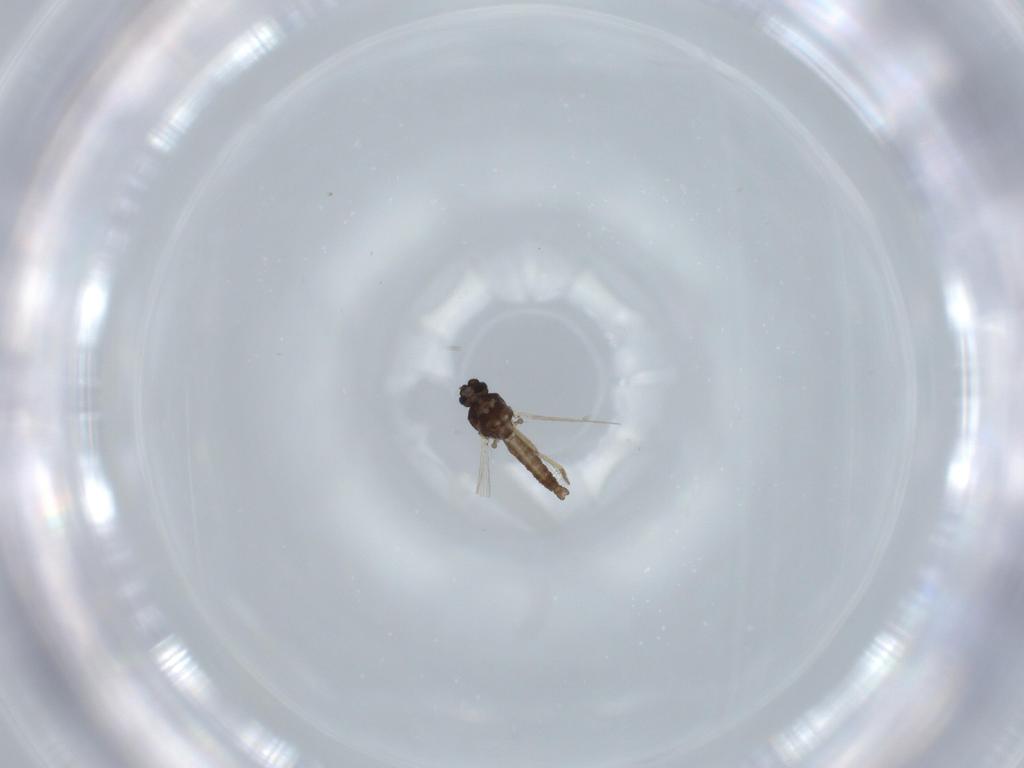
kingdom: Animalia
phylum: Arthropoda
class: Insecta
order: Diptera
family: Ceratopogonidae
